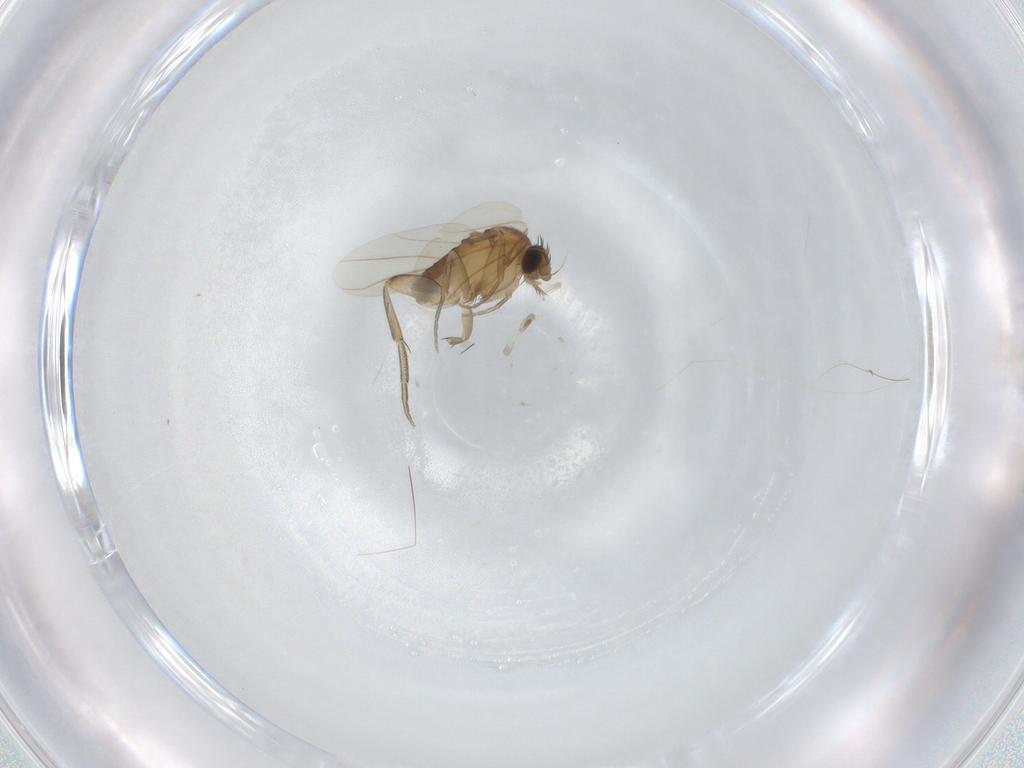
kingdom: Animalia
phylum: Arthropoda
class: Insecta
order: Diptera
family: Phoridae
